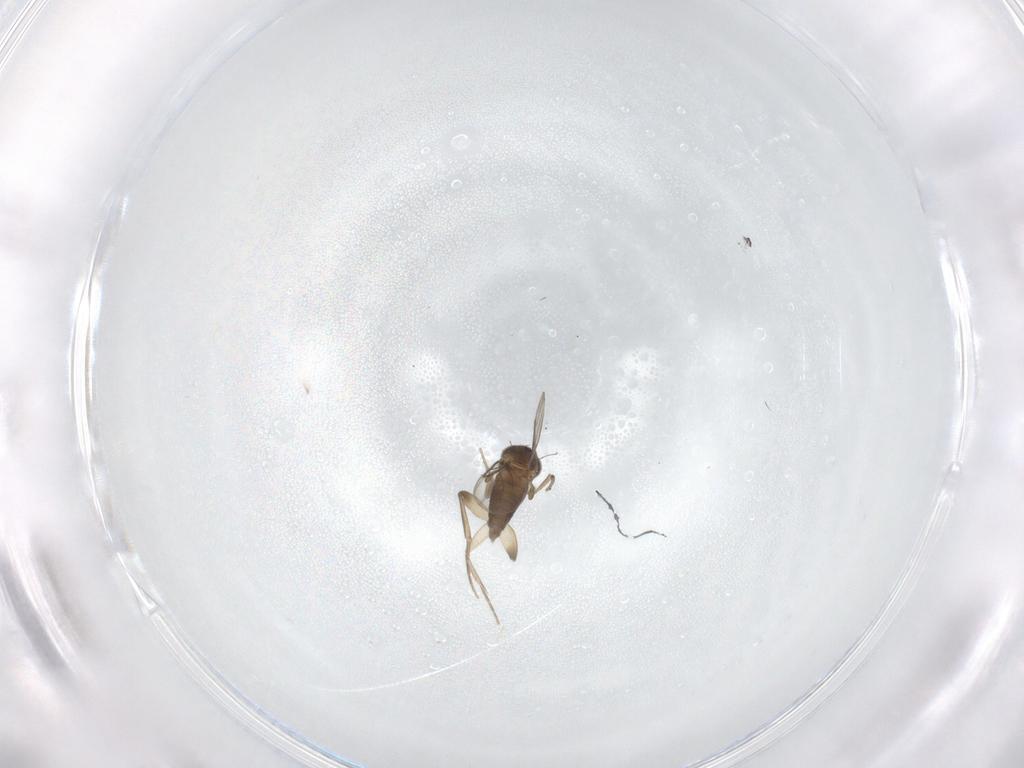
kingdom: Animalia
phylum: Arthropoda
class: Insecta
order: Diptera
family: Phoridae
